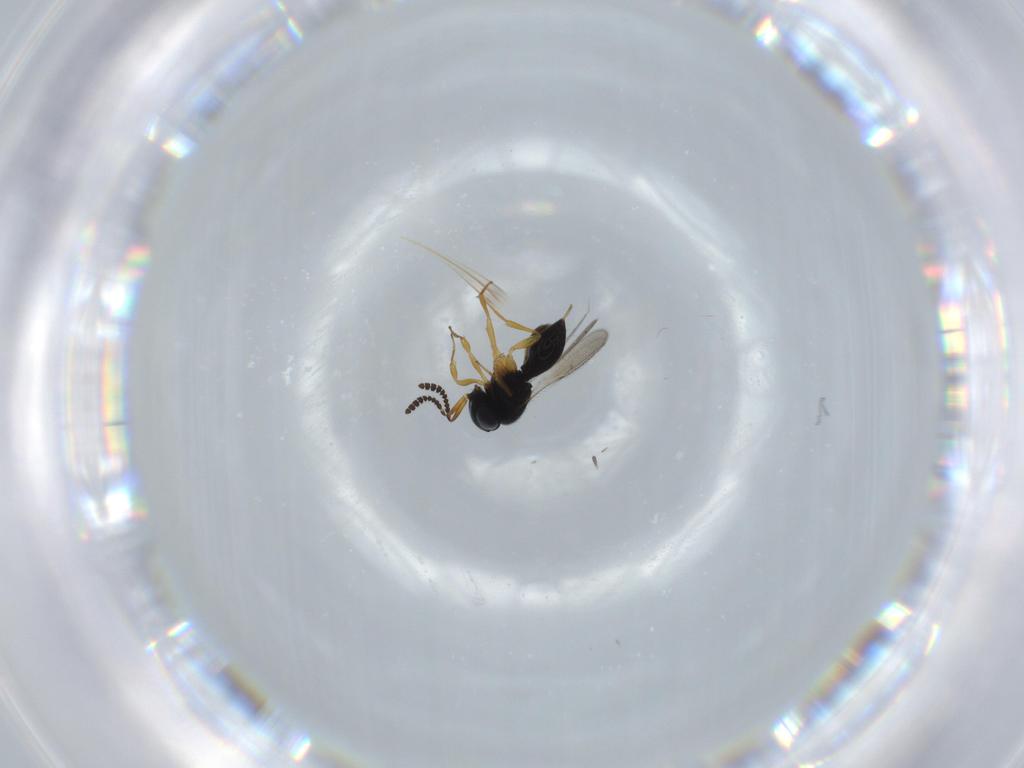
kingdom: Animalia
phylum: Arthropoda
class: Insecta
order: Hymenoptera
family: Scelionidae
